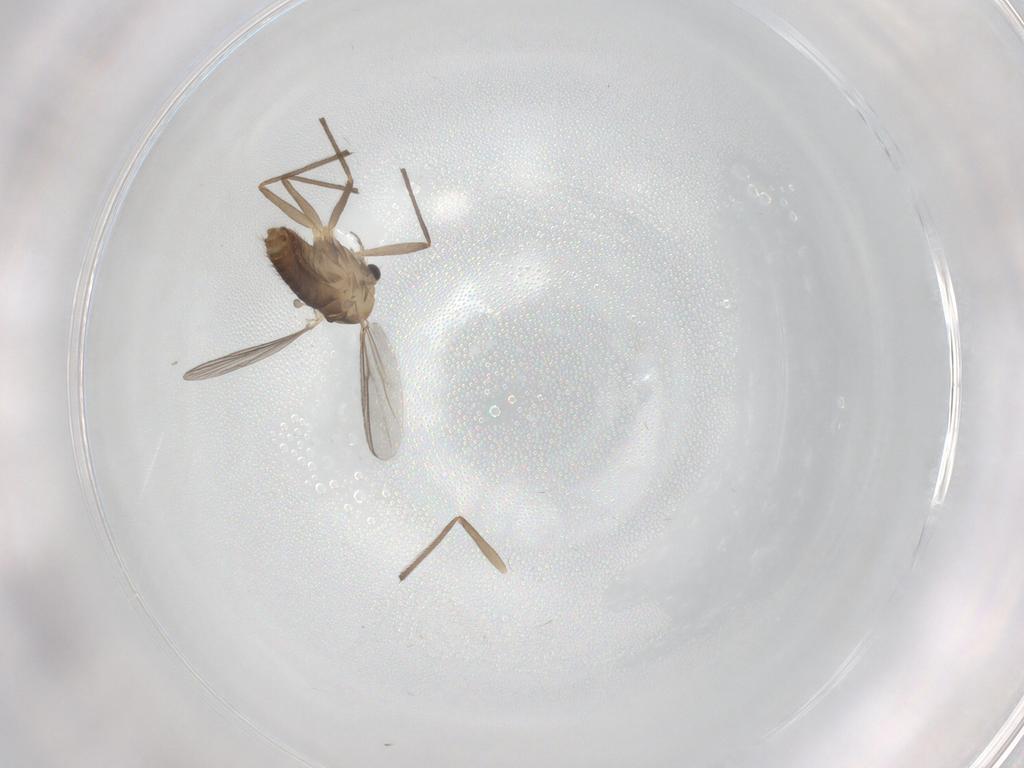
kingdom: Animalia
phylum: Arthropoda
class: Insecta
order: Diptera
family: Chironomidae
